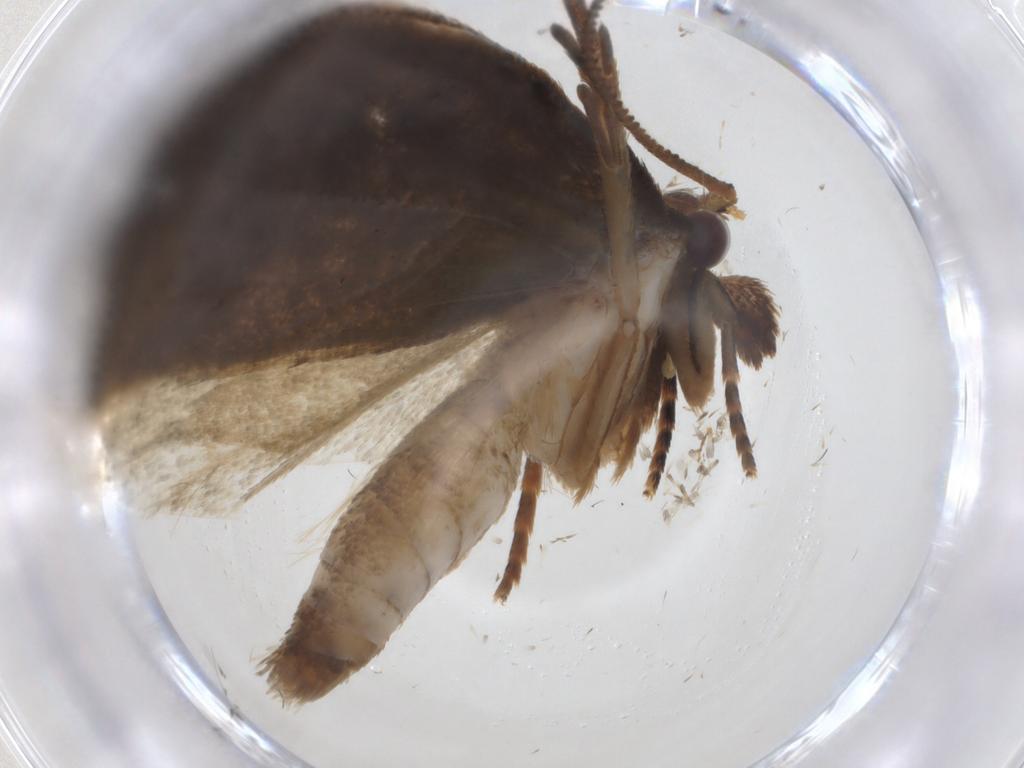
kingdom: Animalia
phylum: Arthropoda
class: Insecta
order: Lepidoptera
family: Tortricidae
